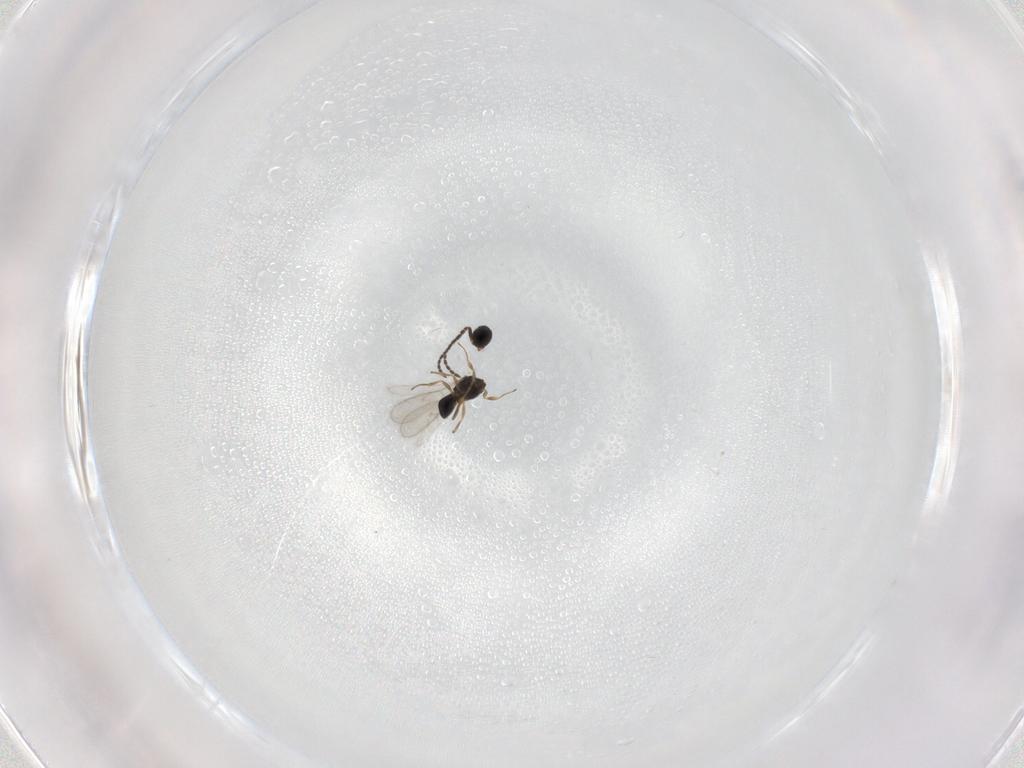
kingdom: Animalia
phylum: Arthropoda
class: Insecta
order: Hymenoptera
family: Scelionidae
